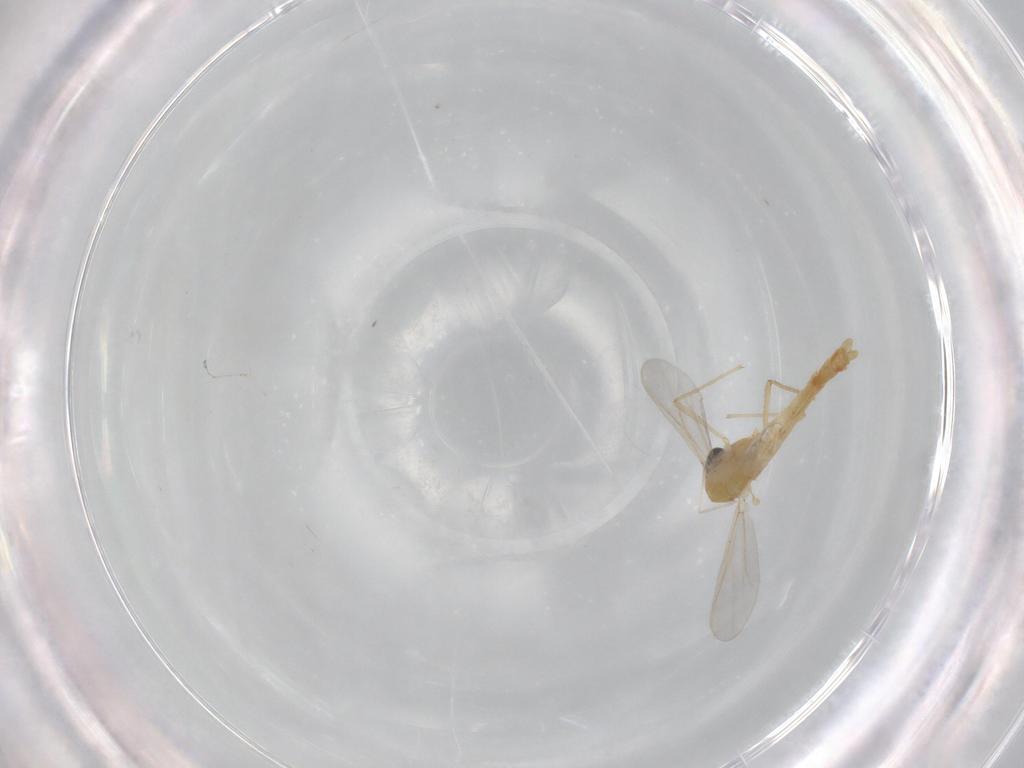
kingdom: Animalia
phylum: Arthropoda
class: Insecta
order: Diptera
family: Chironomidae
